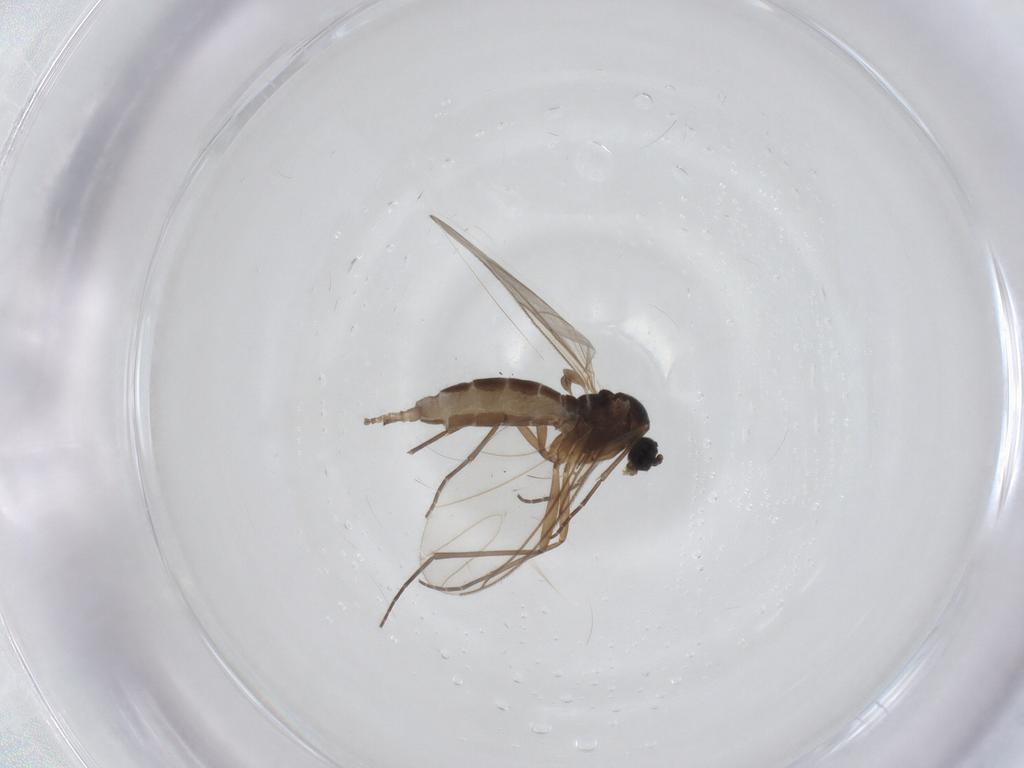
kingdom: Animalia
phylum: Arthropoda
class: Insecta
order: Diptera
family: Sciaridae
